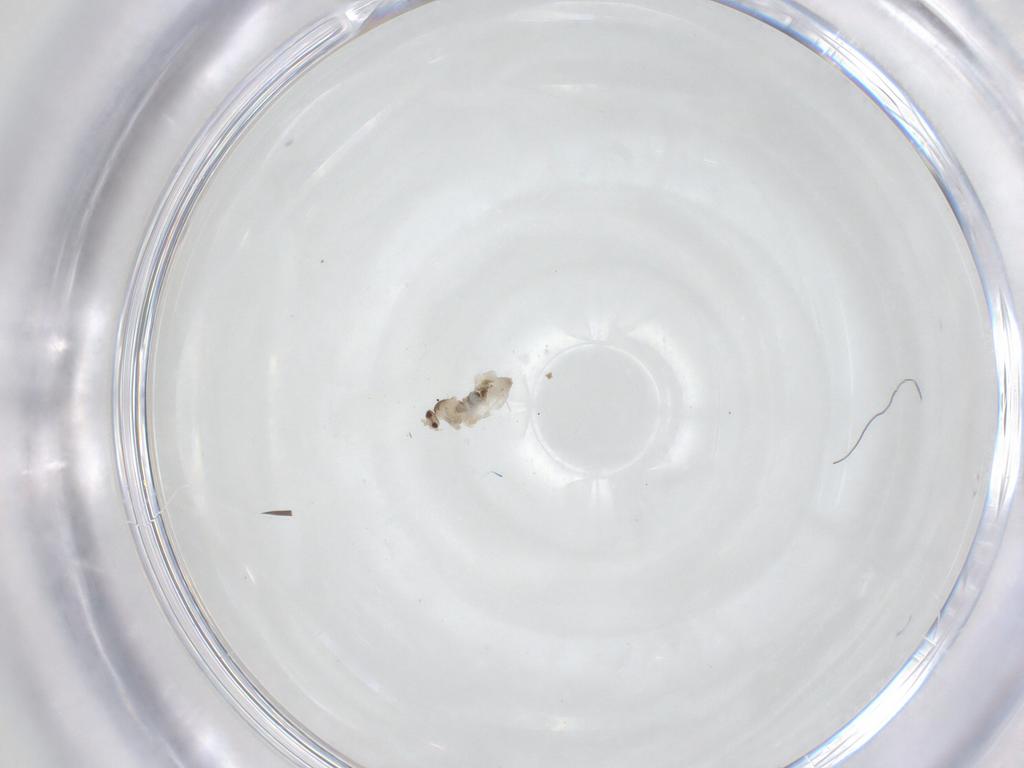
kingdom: Animalia
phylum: Arthropoda
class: Insecta
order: Diptera
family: Cecidomyiidae
